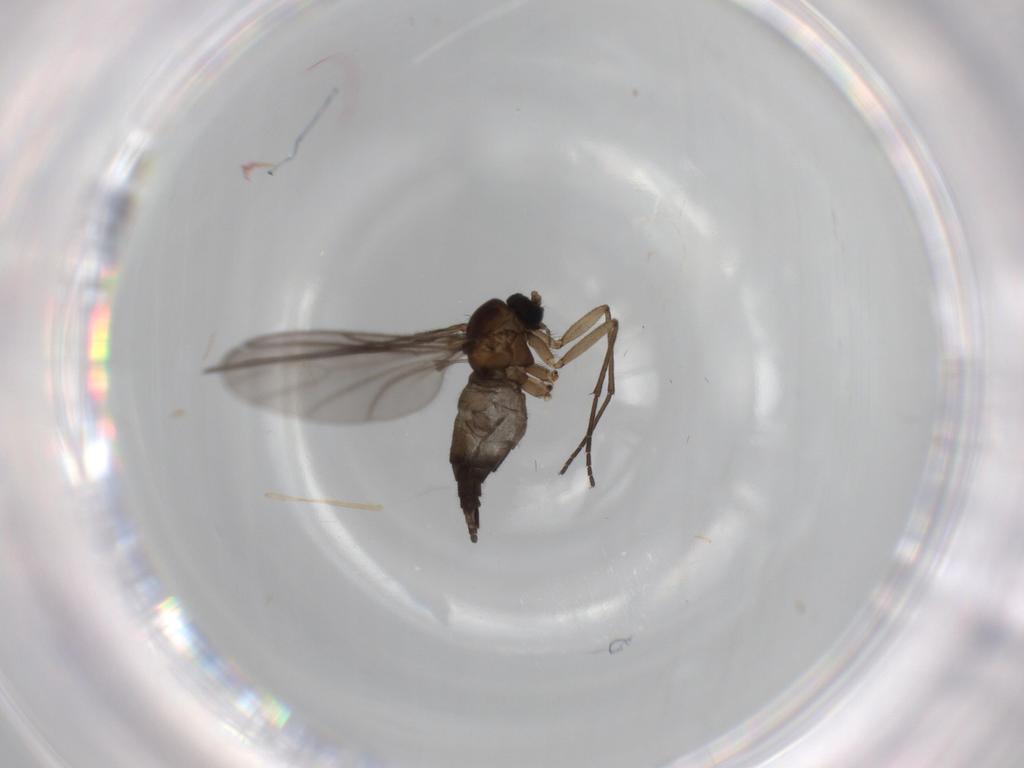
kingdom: Animalia
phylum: Arthropoda
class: Insecta
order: Diptera
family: Sciaridae
